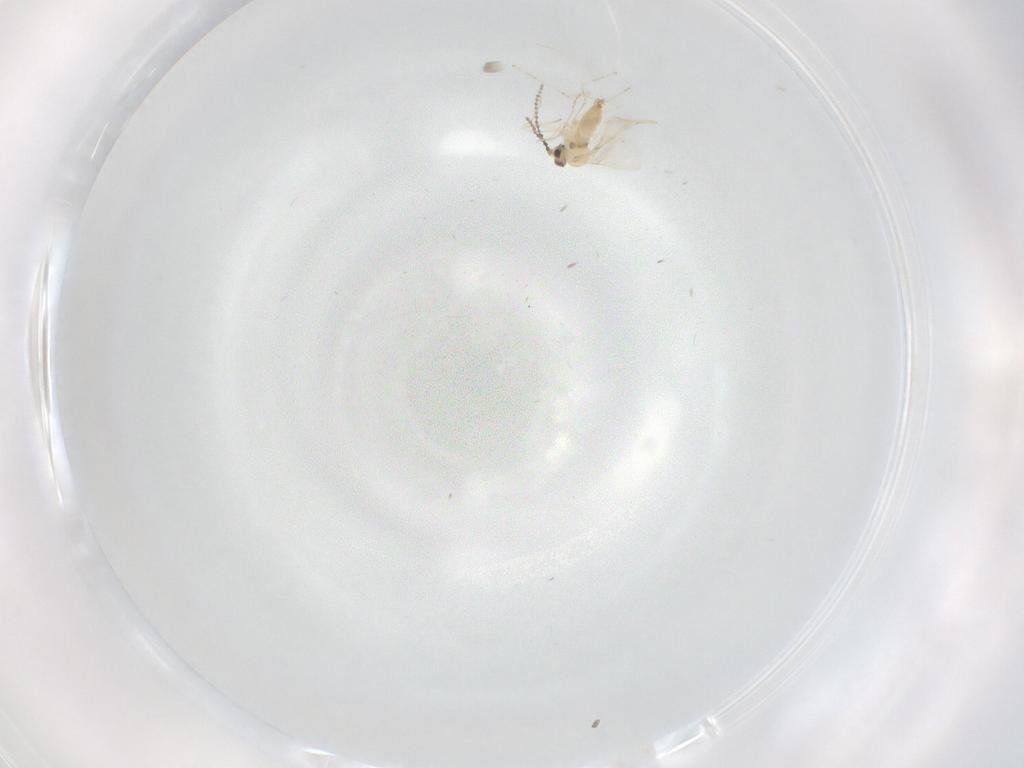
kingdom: Animalia
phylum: Arthropoda
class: Insecta
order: Diptera
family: Cecidomyiidae
